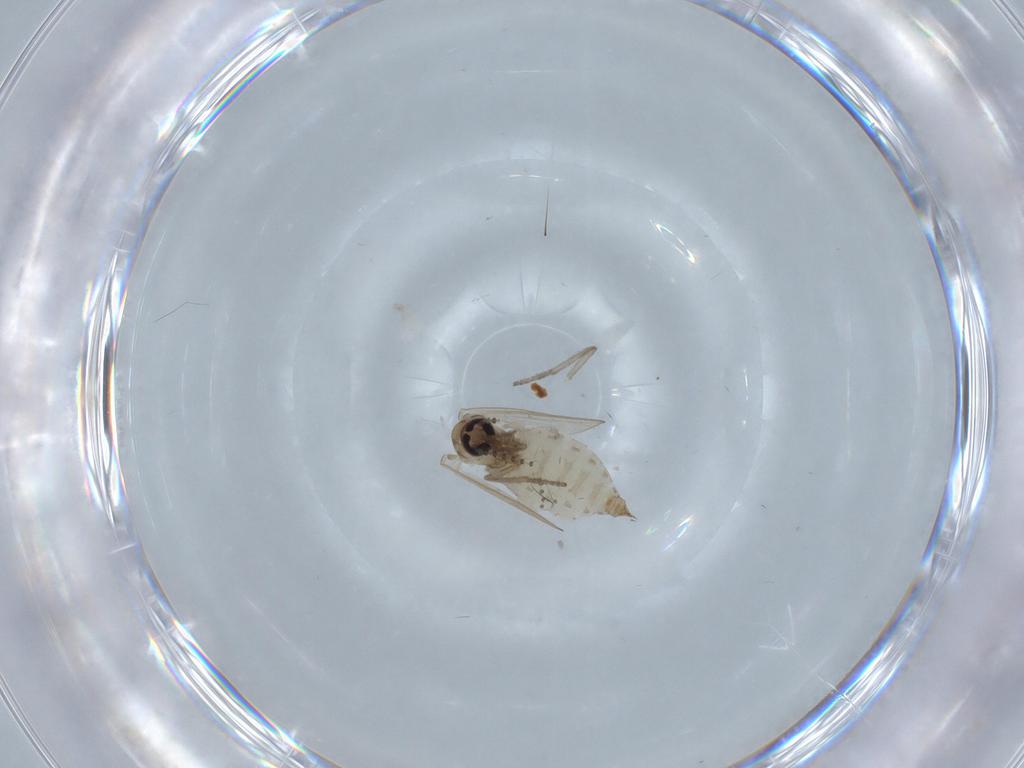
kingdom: Animalia
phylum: Arthropoda
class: Insecta
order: Diptera
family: Psychodidae
